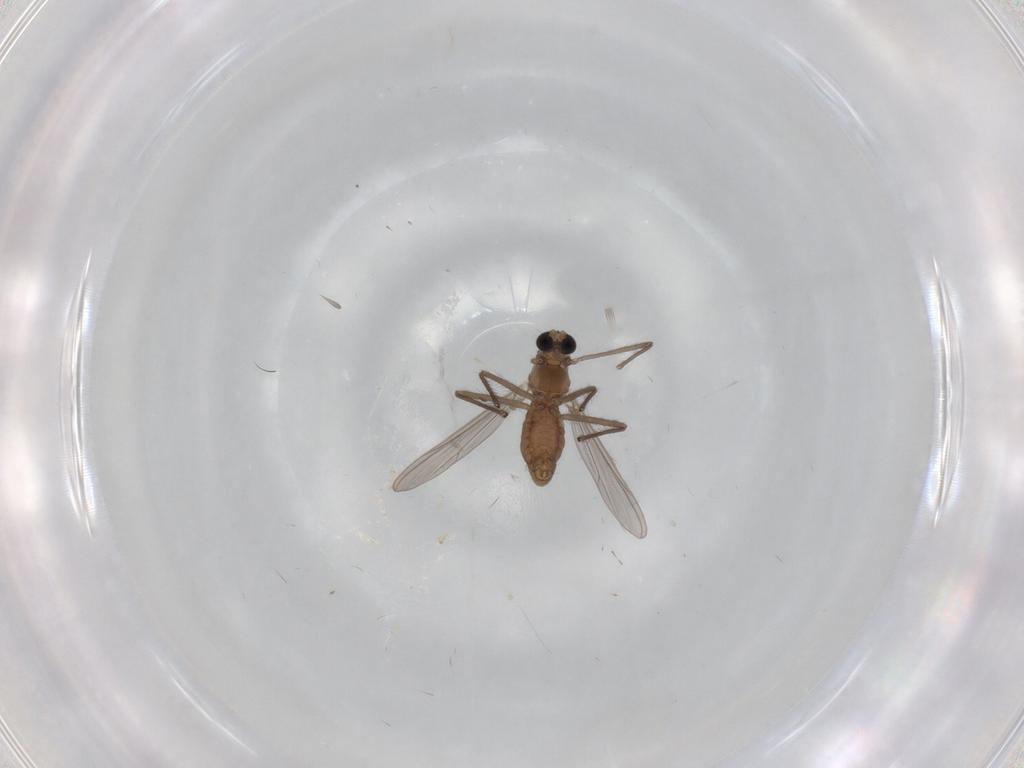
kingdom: Animalia
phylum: Arthropoda
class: Insecta
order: Diptera
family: Chironomidae
